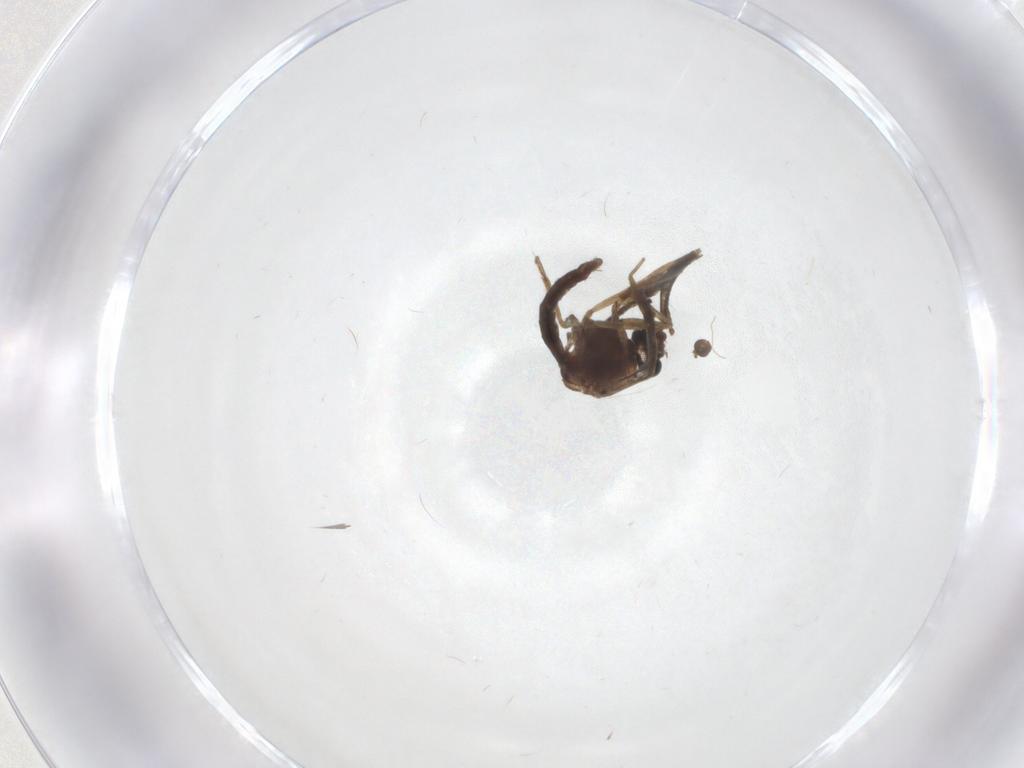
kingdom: Animalia
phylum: Arthropoda
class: Insecta
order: Diptera
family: Ceratopogonidae
